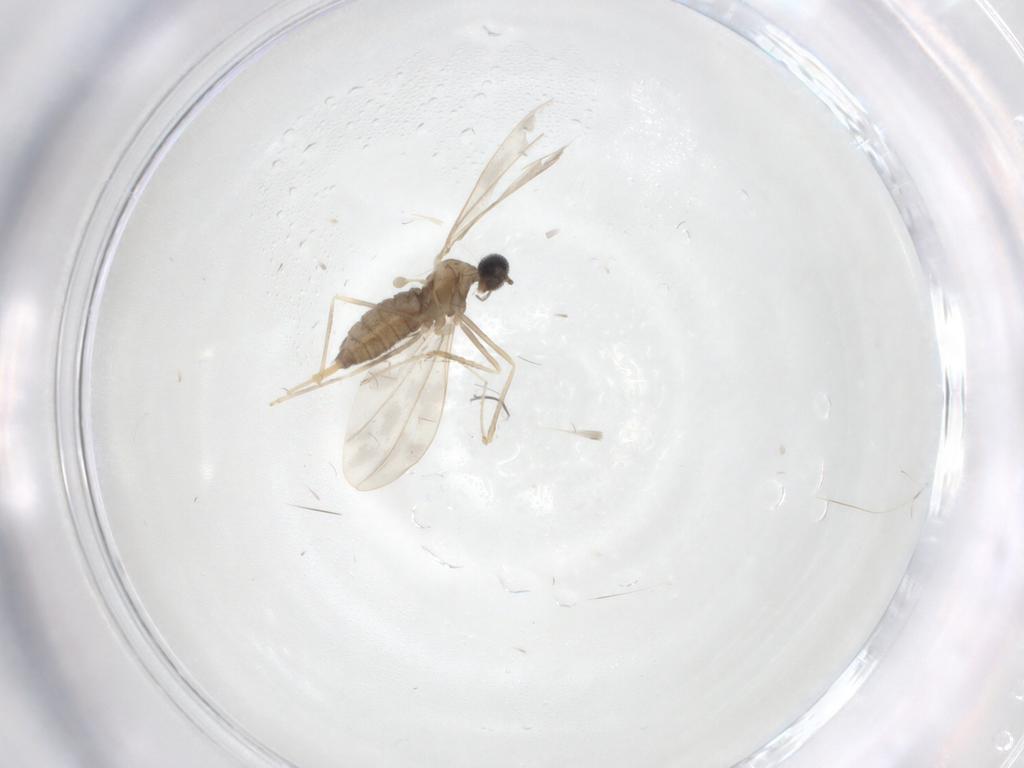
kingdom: Animalia
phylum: Arthropoda
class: Insecta
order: Diptera
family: Cecidomyiidae
